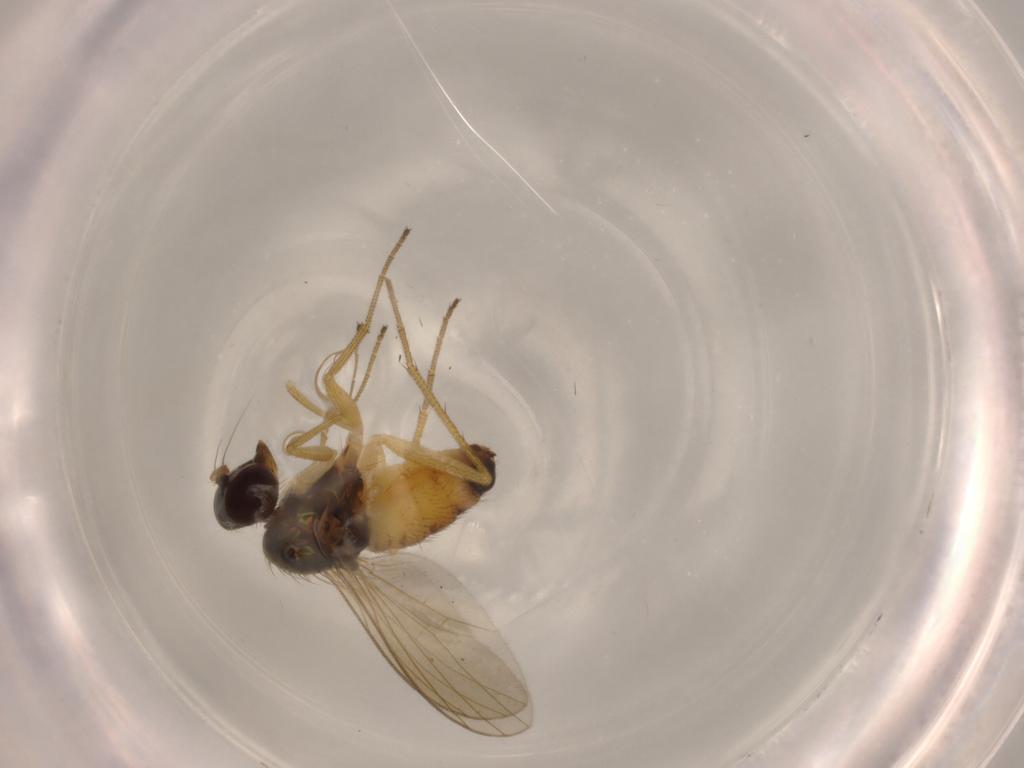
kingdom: Animalia
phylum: Arthropoda
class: Insecta
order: Diptera
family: Dolichopodidae
